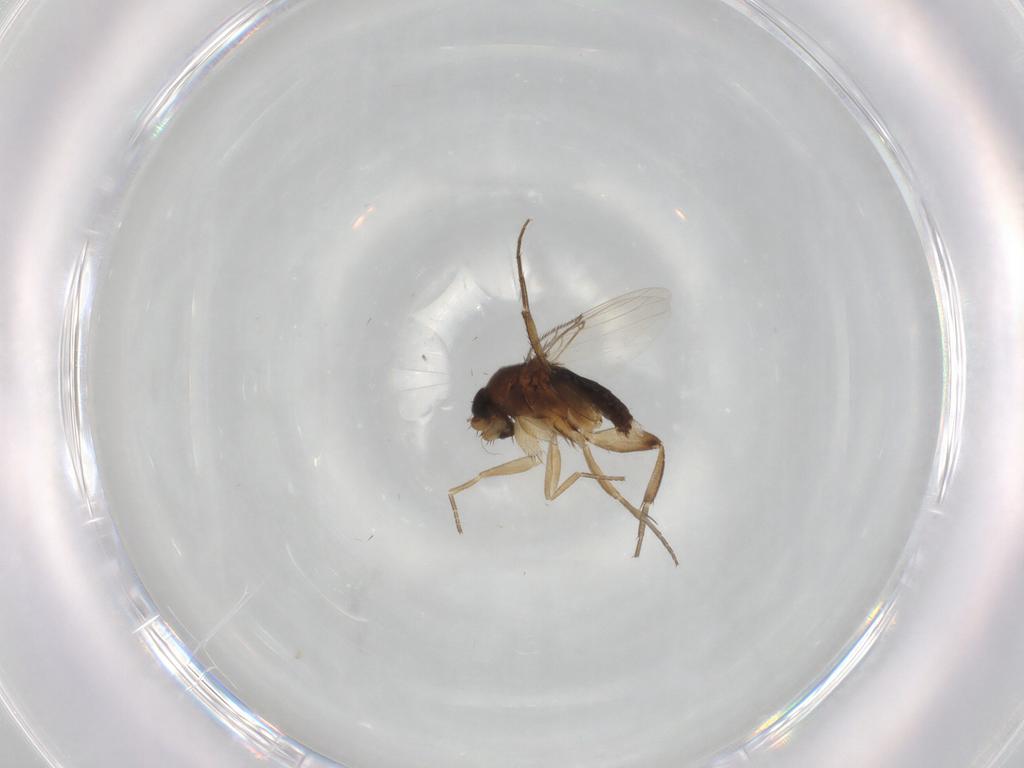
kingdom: Animalia
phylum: Arthropoda
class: Insecta
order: Diptera
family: Phoridae
